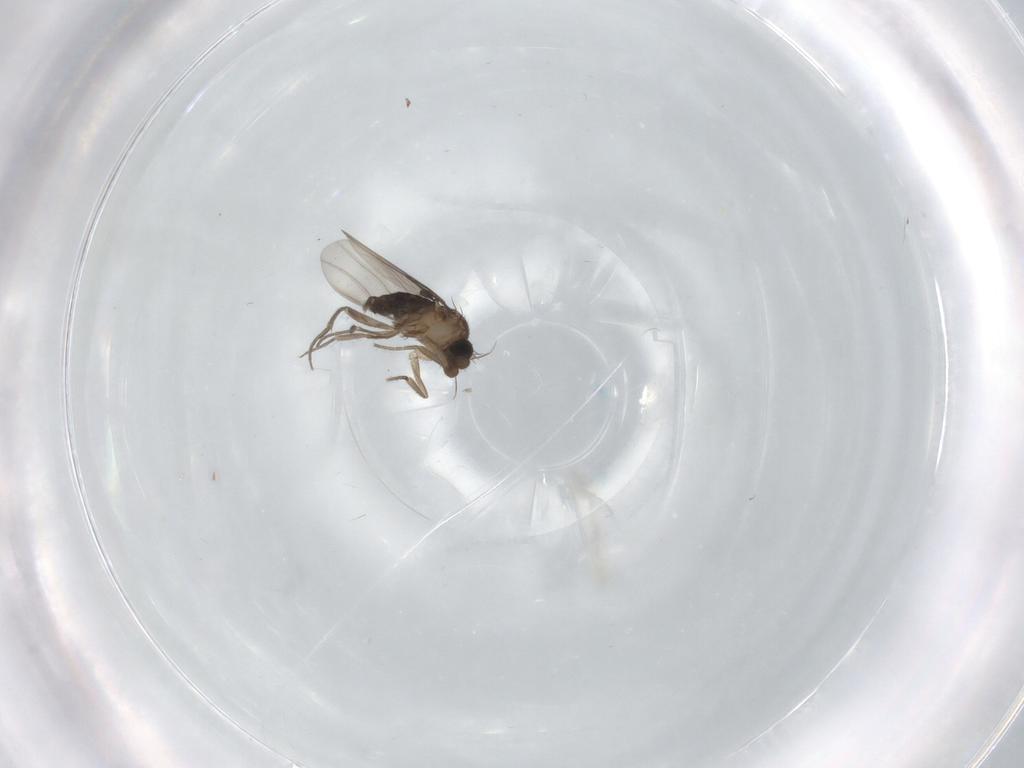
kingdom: Animalia
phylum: Arthropoda
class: Insecta
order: Diptera
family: Phoridae
